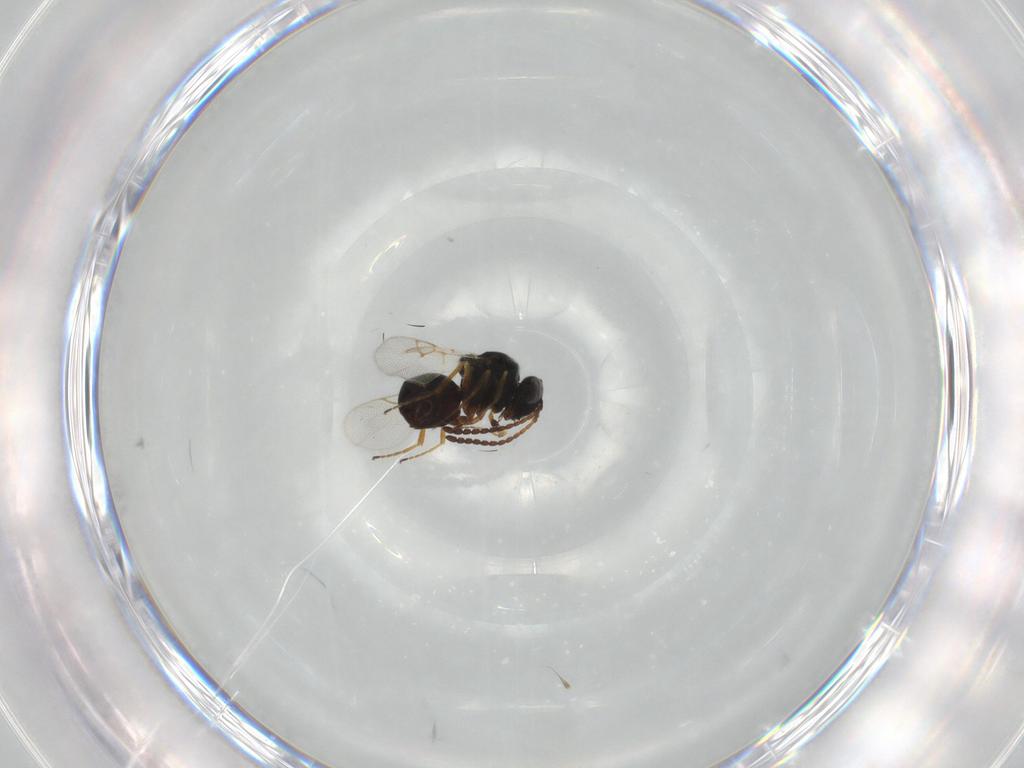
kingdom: Animalia
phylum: Arthropoda
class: Insecta
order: Hymenoptera
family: Figitidae
